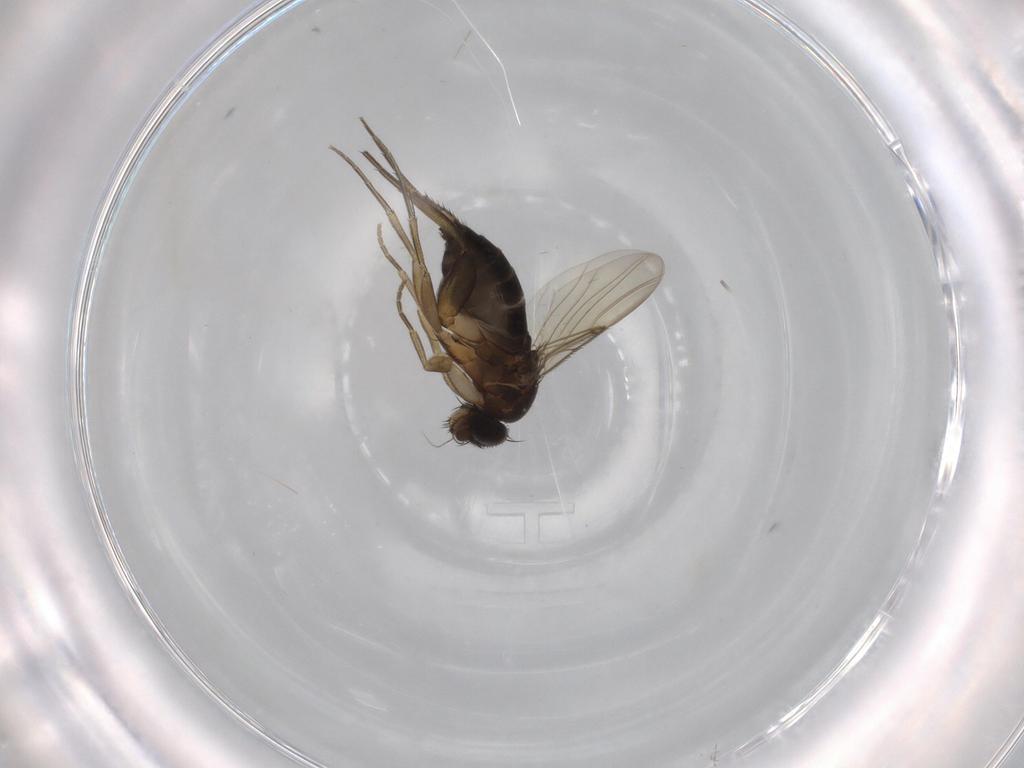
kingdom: Animalia
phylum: Arthropoda
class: Insecta
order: Diptera
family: Phoridae
